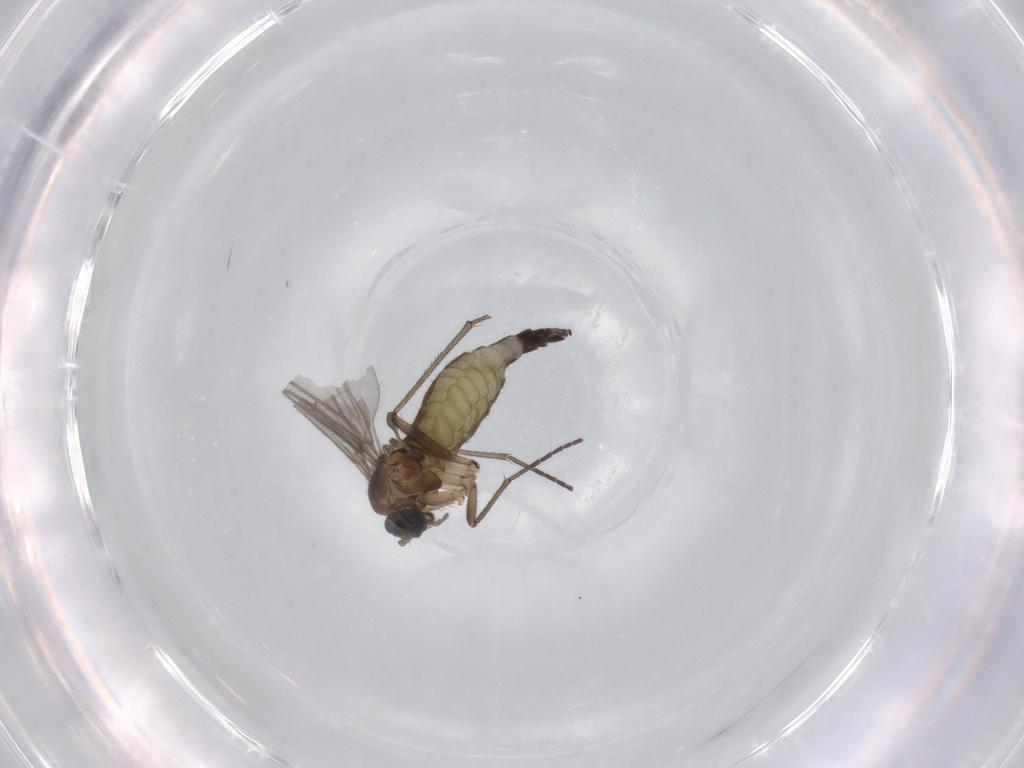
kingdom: Animalia
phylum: Arthropoda
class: Insecta
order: Diptera
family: Sciaridae
